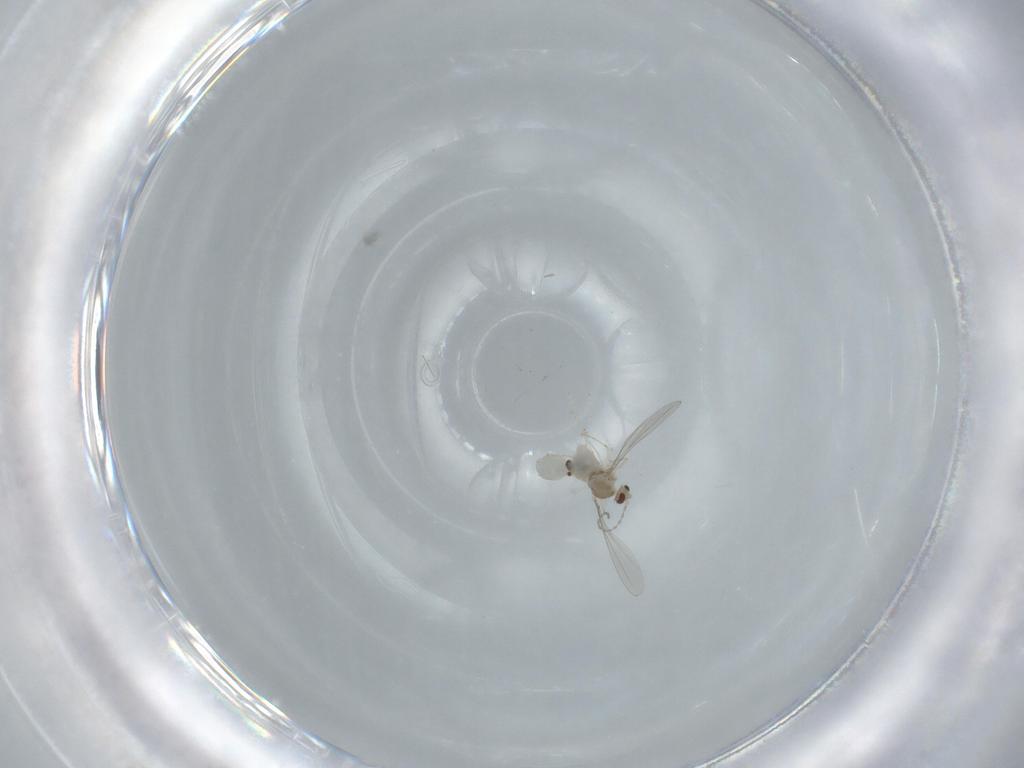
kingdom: Animalia
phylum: Arthropoda
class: Insecta
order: Diptera
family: Cecidomyiidae
